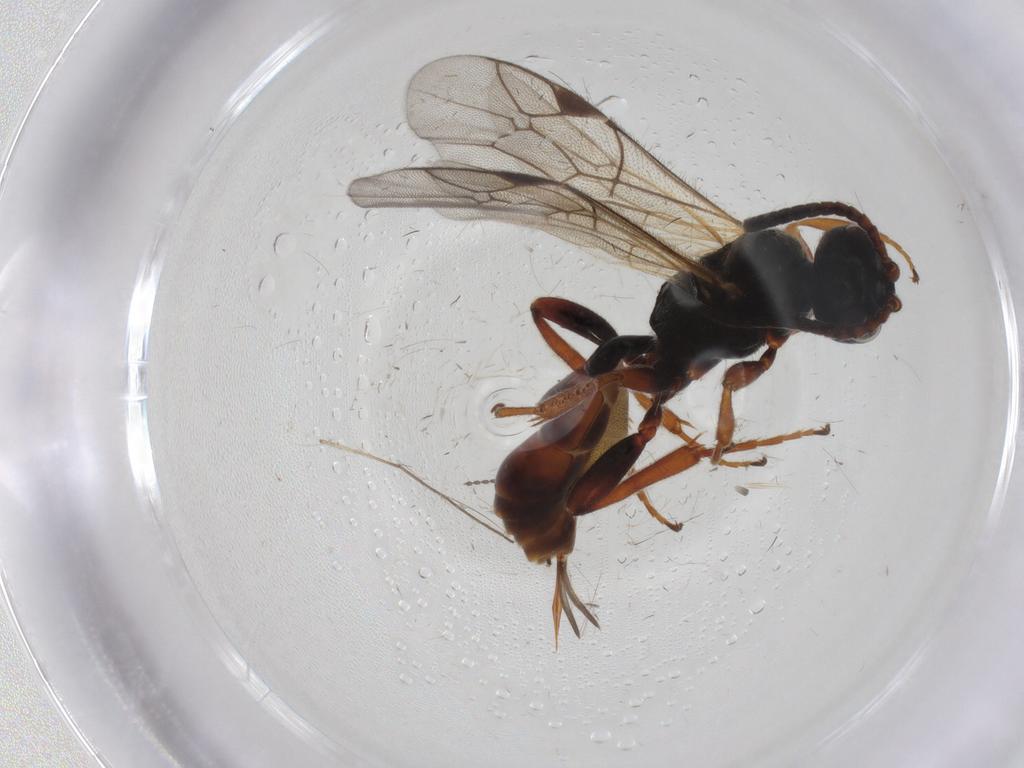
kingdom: Animalia
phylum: Arthropoda
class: Insecta
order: Hymenoptera
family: Ichneumonidae
